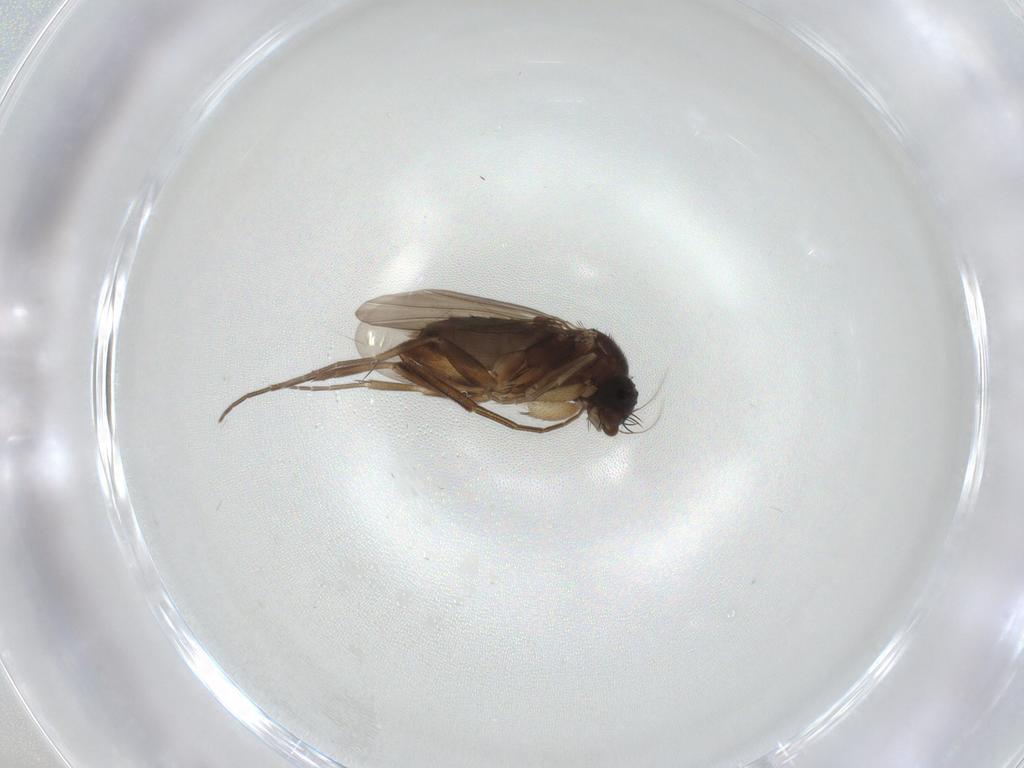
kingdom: Animalia
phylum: Arthropoda
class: Insecta
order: Diptera
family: Phoridae
